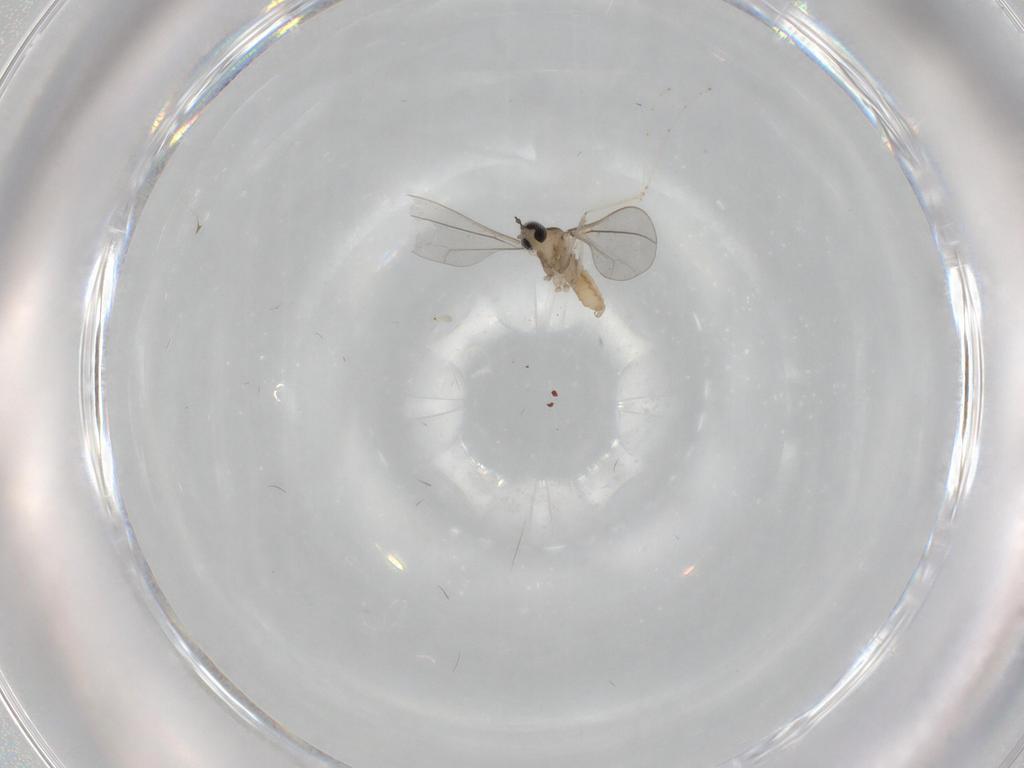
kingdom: Animalia
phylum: Arthropoda
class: Insecta
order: Diptera
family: Cecidomyiidae
